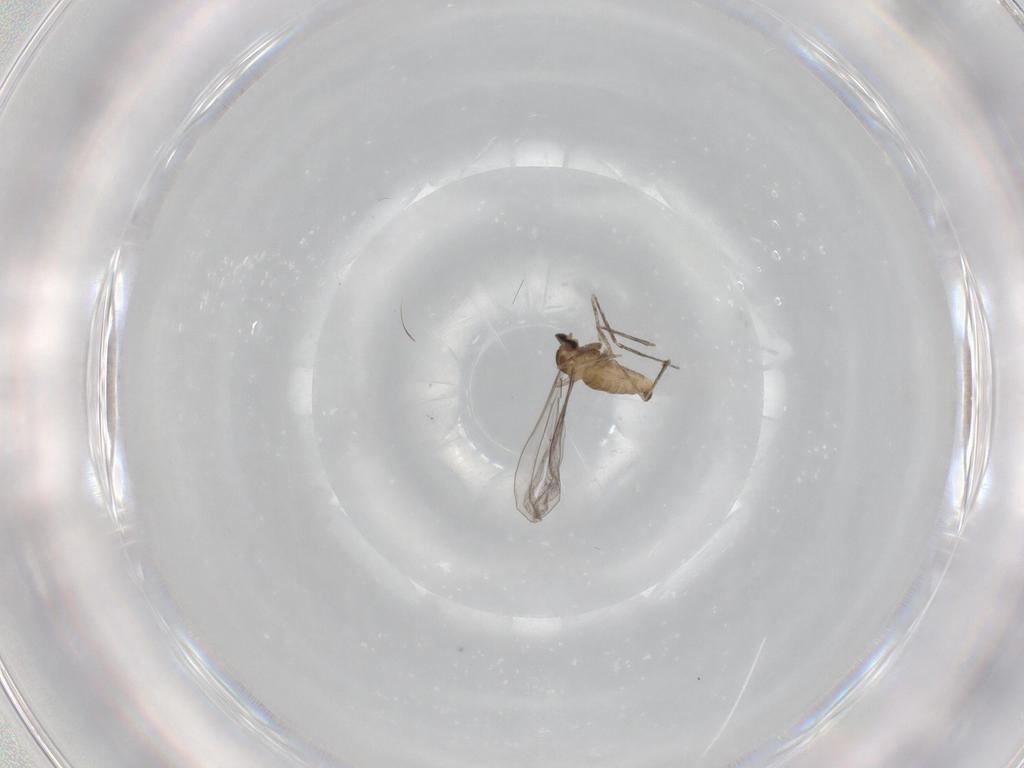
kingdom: Animalia
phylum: Arthropoda
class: Insecta
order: Diptera
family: Cecidomyiidae
